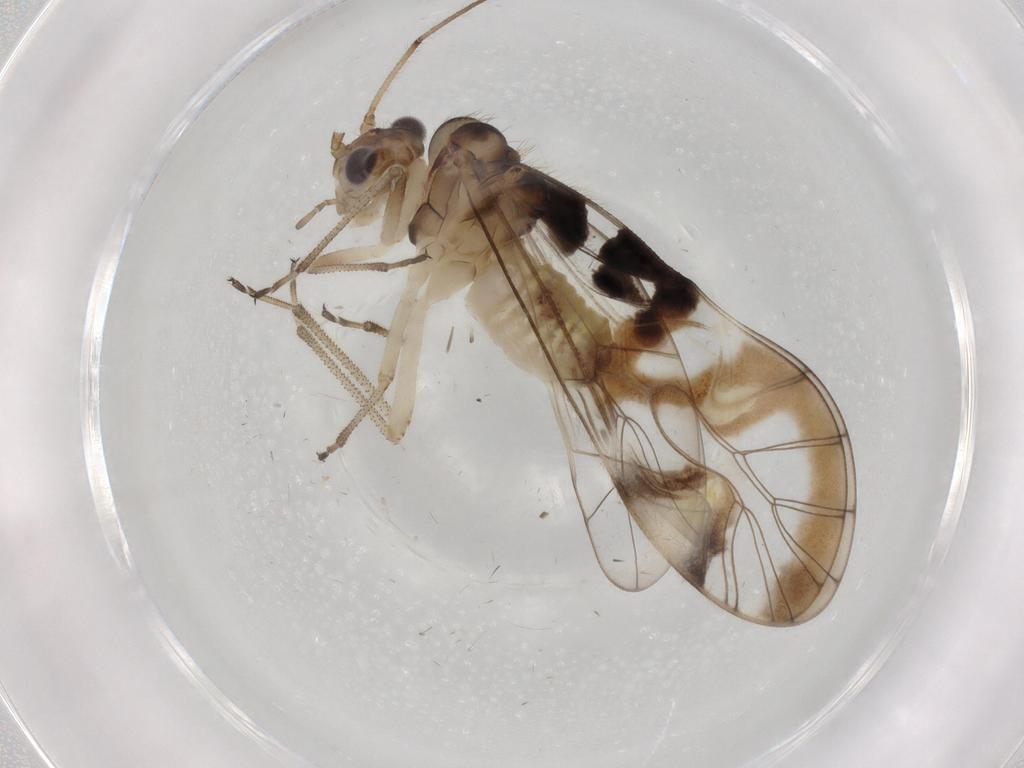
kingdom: Animalia
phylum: Arthropoda
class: Insecta
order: Psocodea
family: Amphipsocidae
